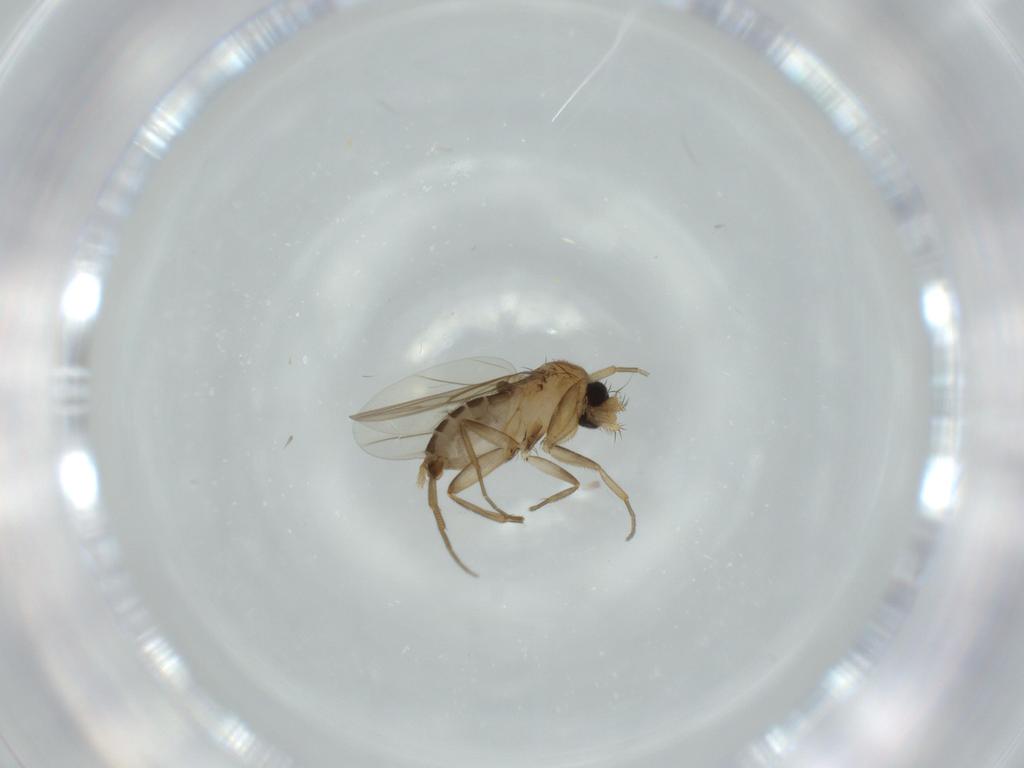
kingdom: Animalia
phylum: Arthropoda
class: Insecta
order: Diptera
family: Phoridae
